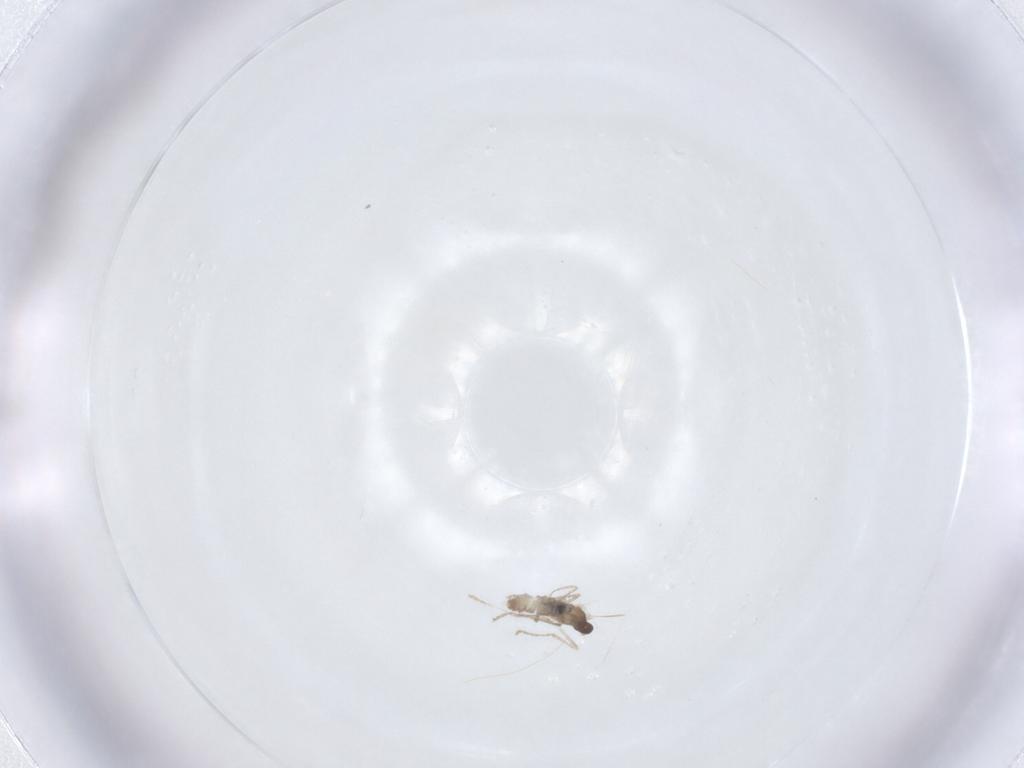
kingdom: Animalia
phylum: Arthropoda
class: Insecta
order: Diptera
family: Cecidomyiidae
